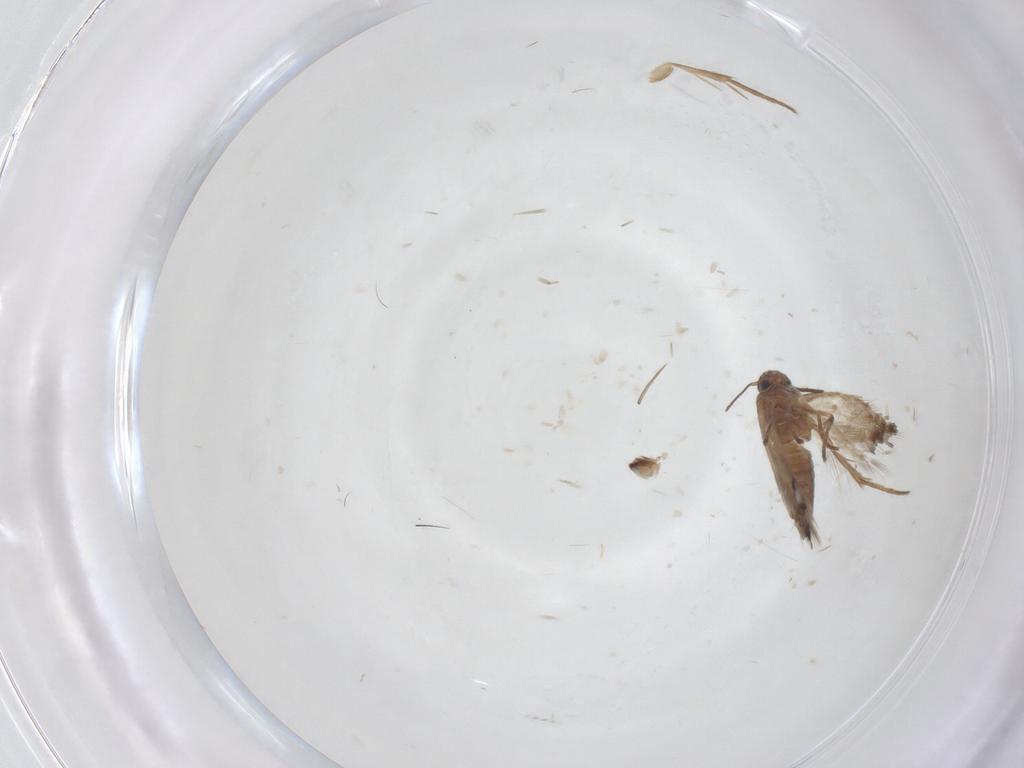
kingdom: Animalia
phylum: Arthropoda
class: Insecta
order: Lepidoptera
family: Heliozelidae
